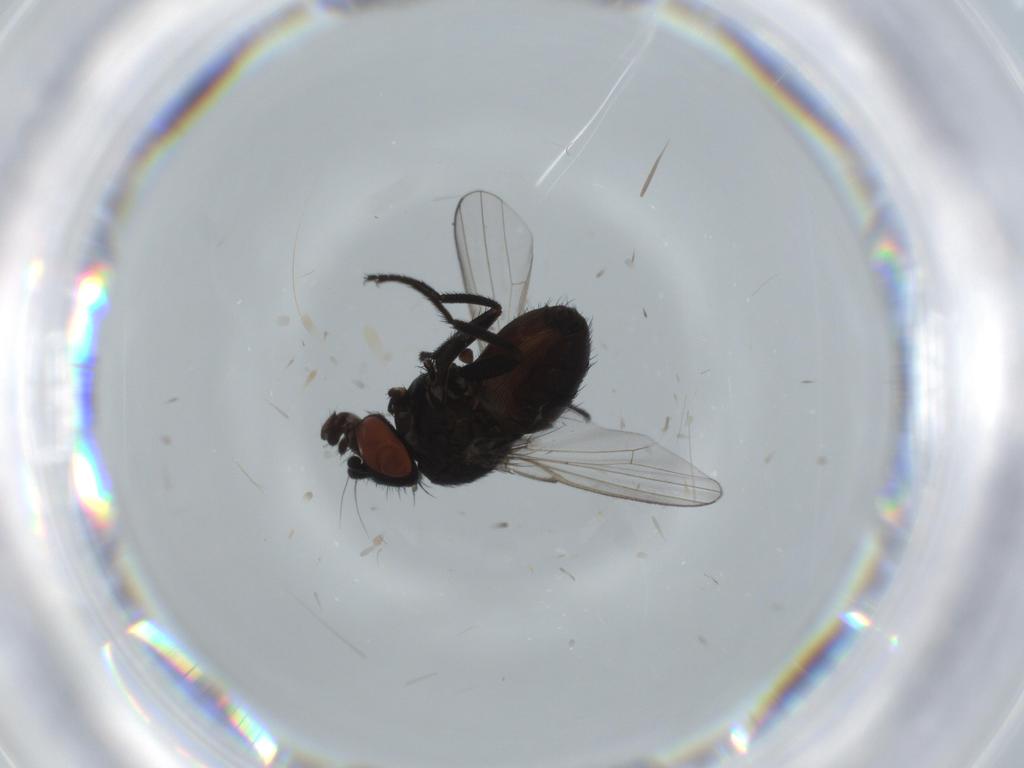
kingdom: Animalia
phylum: Arthropoda
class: Insecta
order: Diptera
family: Milichiidae
